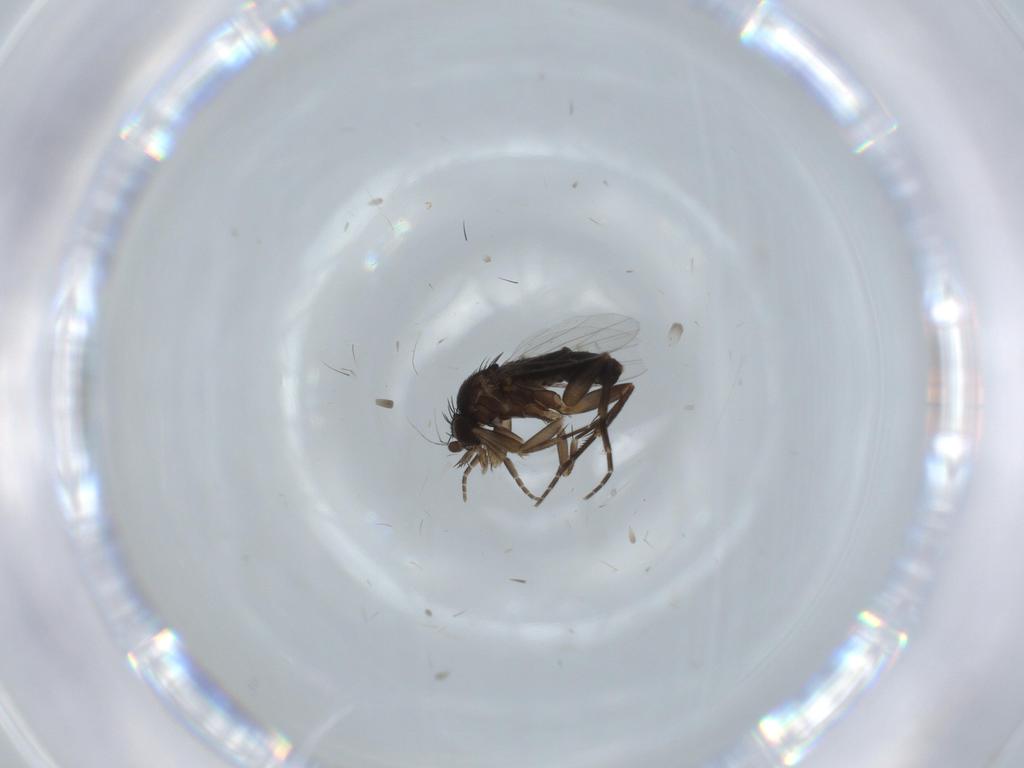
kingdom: Animalia
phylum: Arthropoda
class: Insecta
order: Diptera
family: Phoridae
